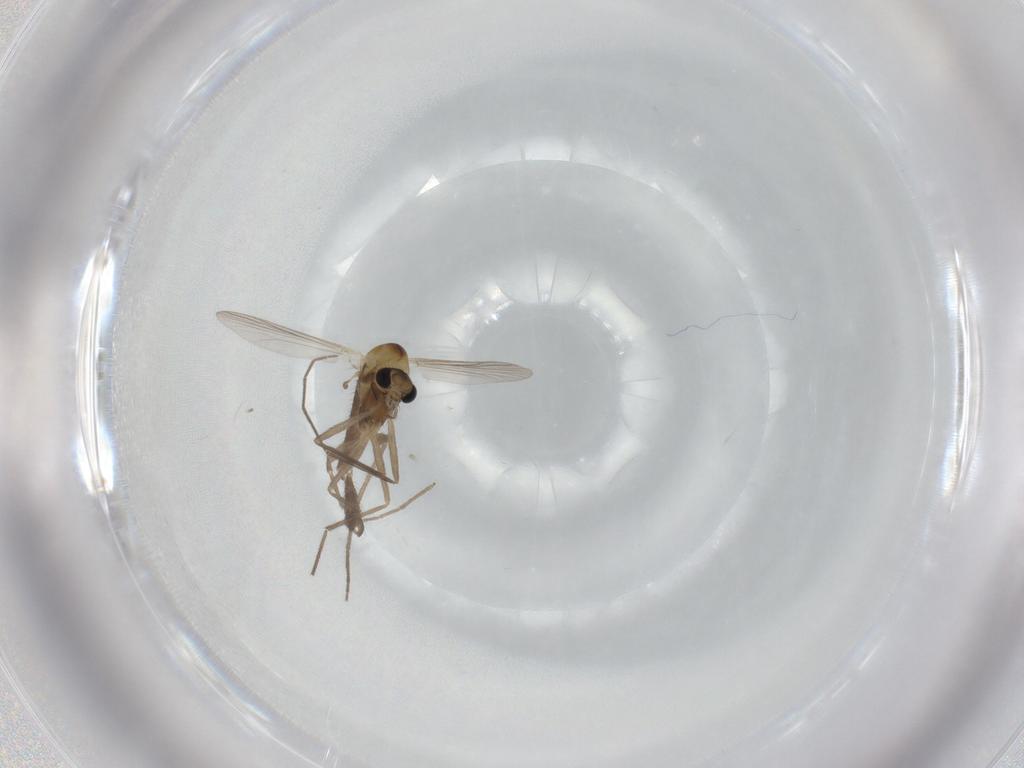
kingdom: Animalia
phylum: Arthropoda
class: Insecta
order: Diptera
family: Chironomidae
